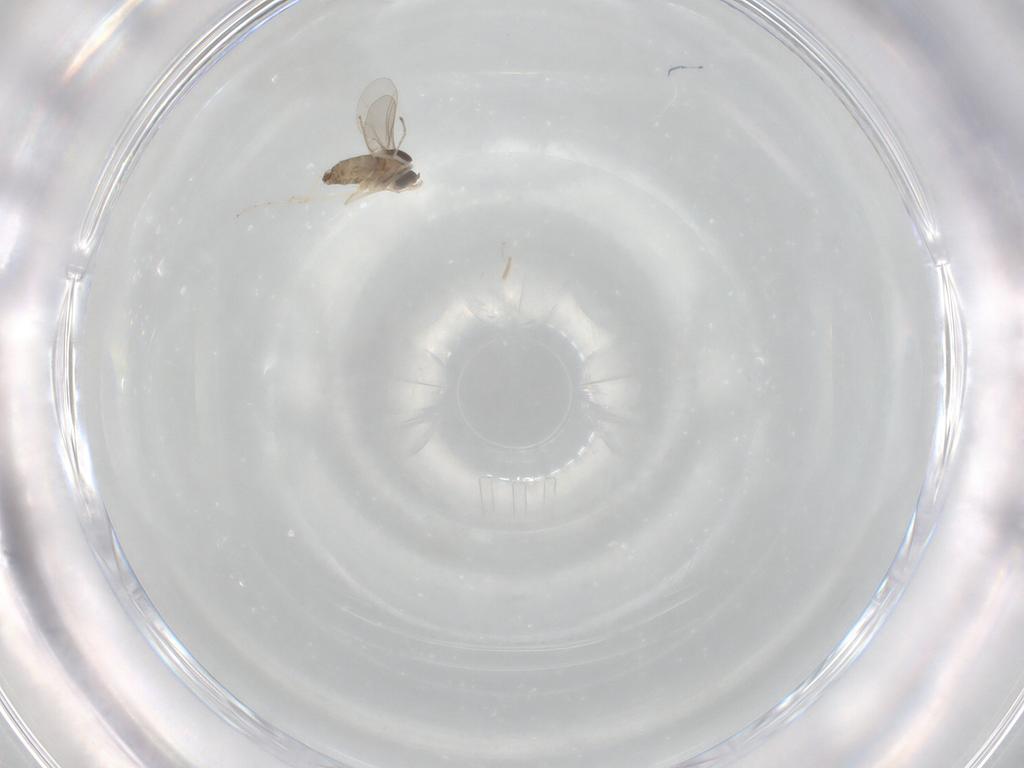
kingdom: Animalia
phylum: Arthropoda
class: Insecta
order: Diptera
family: Cecidomyiidae
